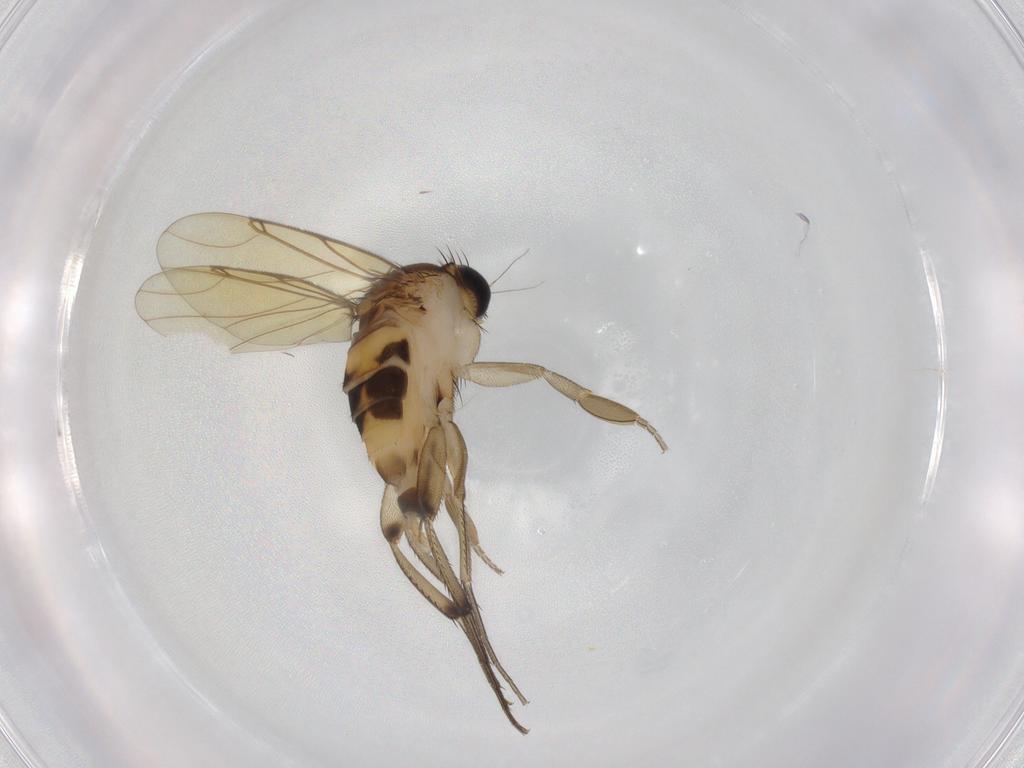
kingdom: Animalia
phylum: Arthropoda
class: Insecta
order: Diptera
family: Phoridae
